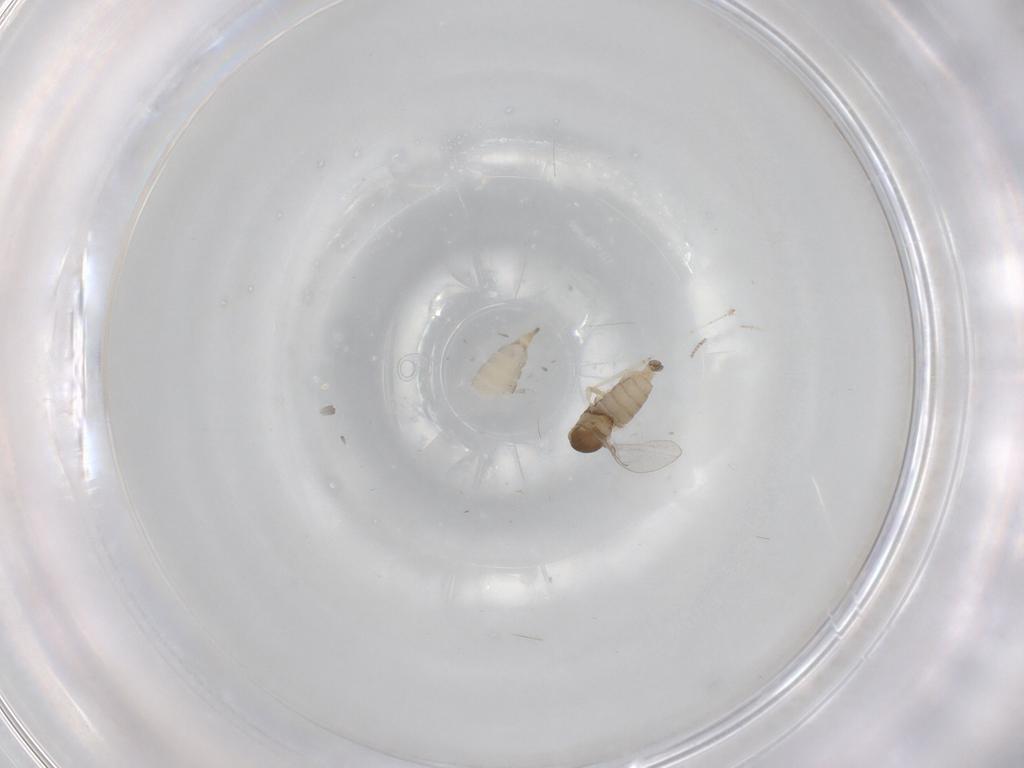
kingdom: Animalia
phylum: Arthropoda
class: Insecta
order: Diptera
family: Cecidomyiidae
